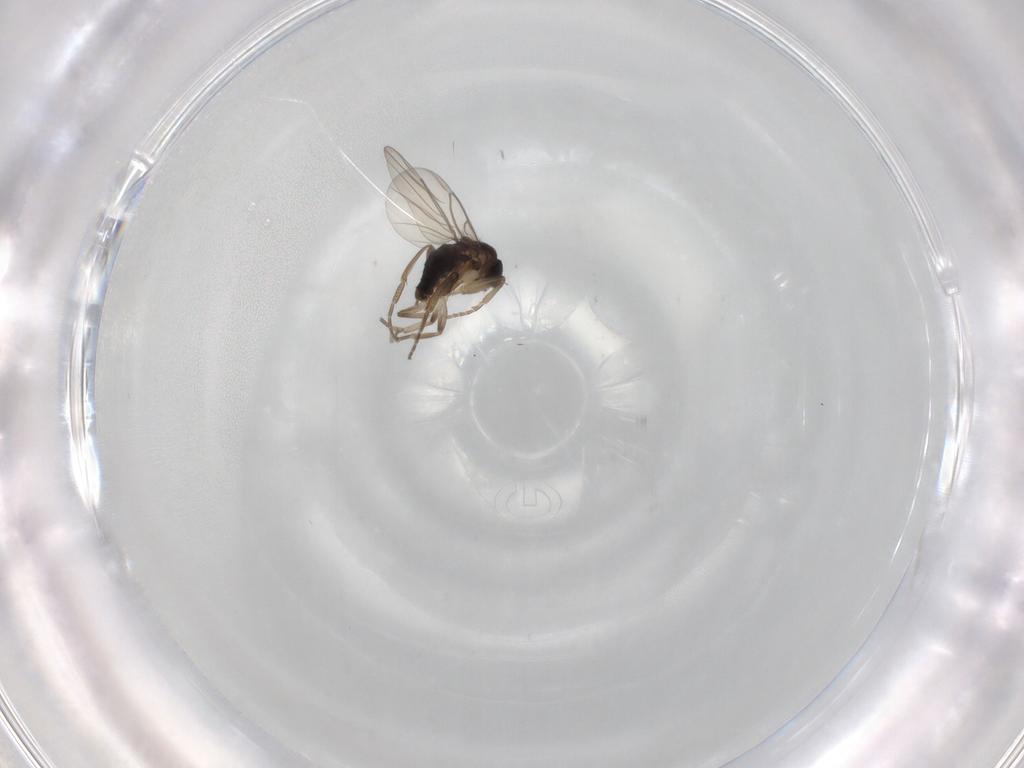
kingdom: Animalia
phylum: Arthropoda
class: Insecta
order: Diptera
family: Phoridae
